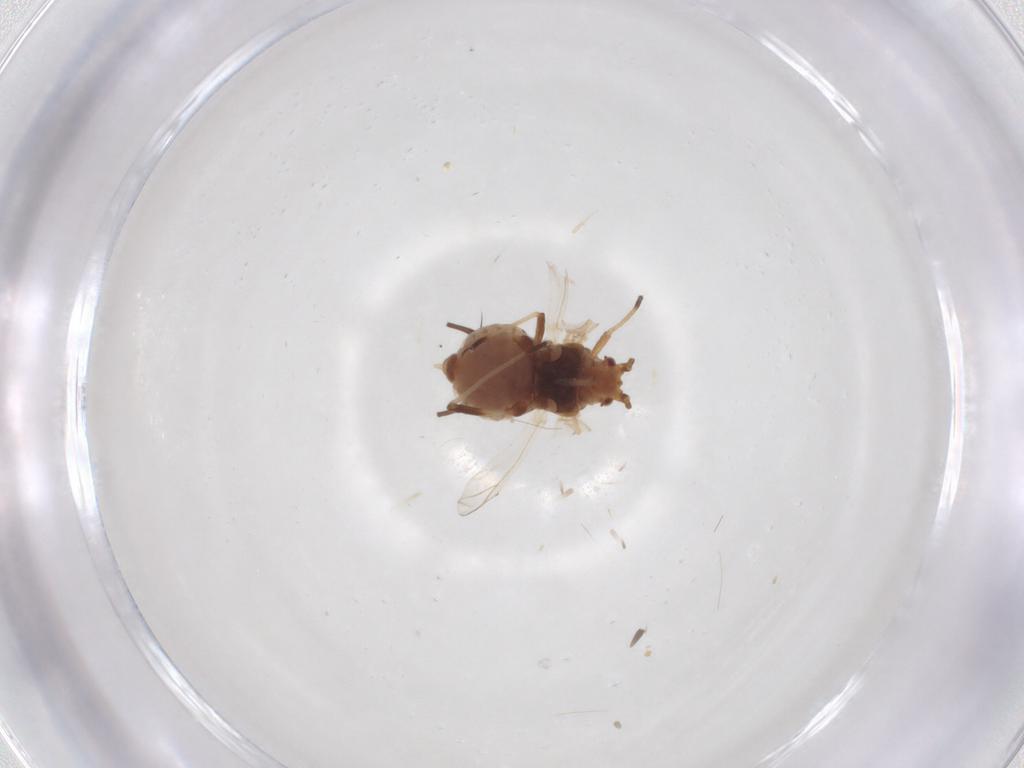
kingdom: Animalia
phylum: Arthropoda
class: Insecta
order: Hemiptera
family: Aphididae
